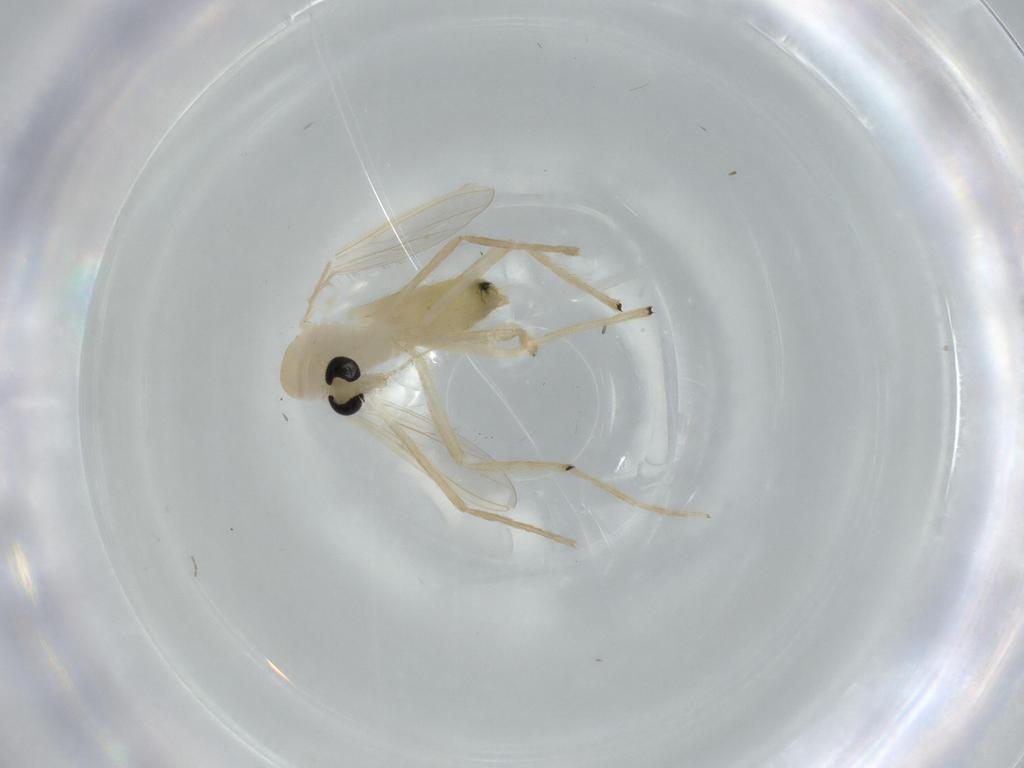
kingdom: Animalia
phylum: Arthropoda
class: Insecta
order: Diptera
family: Chironomidae
